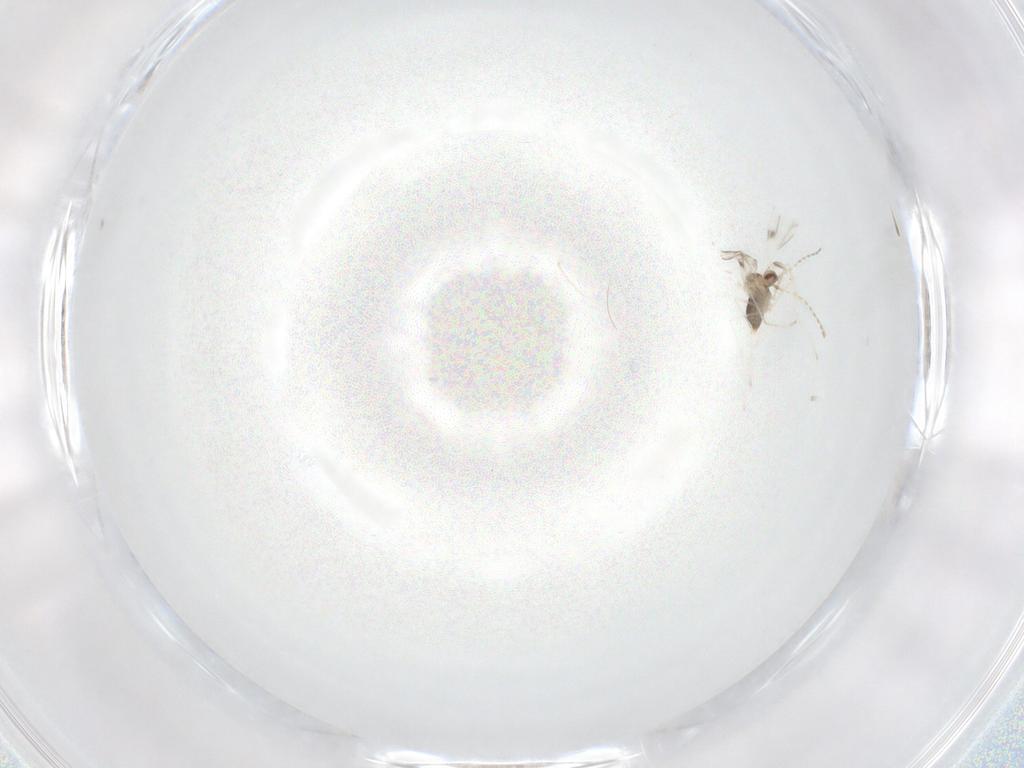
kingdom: Animalia
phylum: Arthropoda
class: Insecta
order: Diptera
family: Cecidomyiidae
